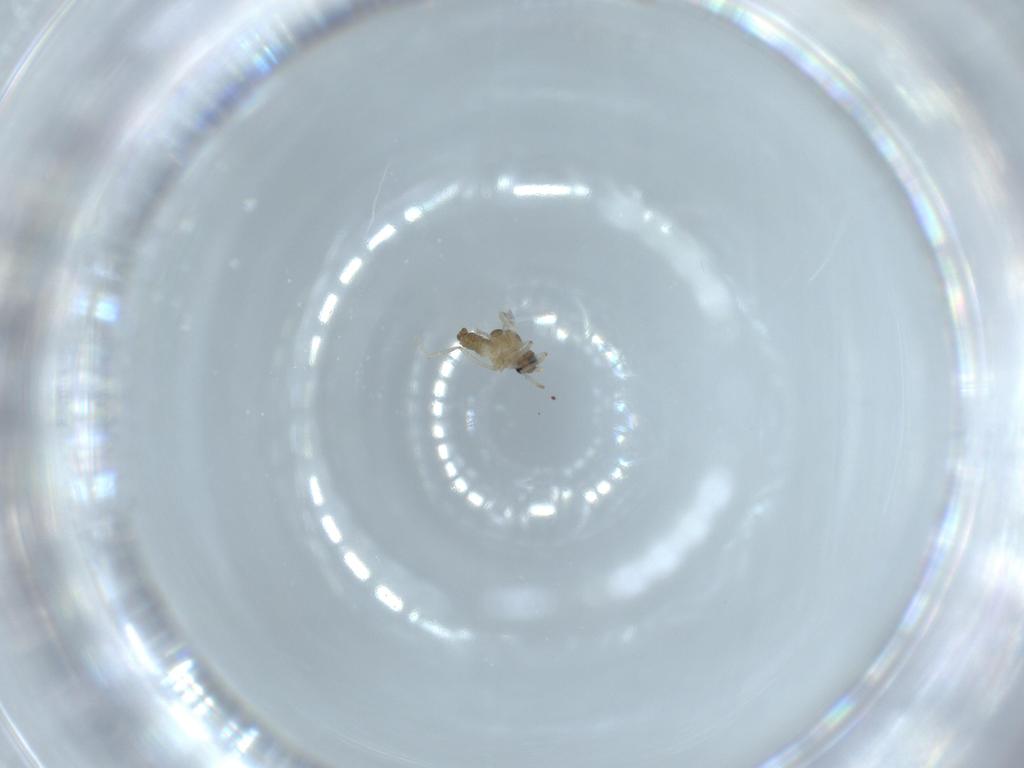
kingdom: Animalia
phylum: Arthropoda
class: Insecta
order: Diptera
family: Cecidomyiidae
